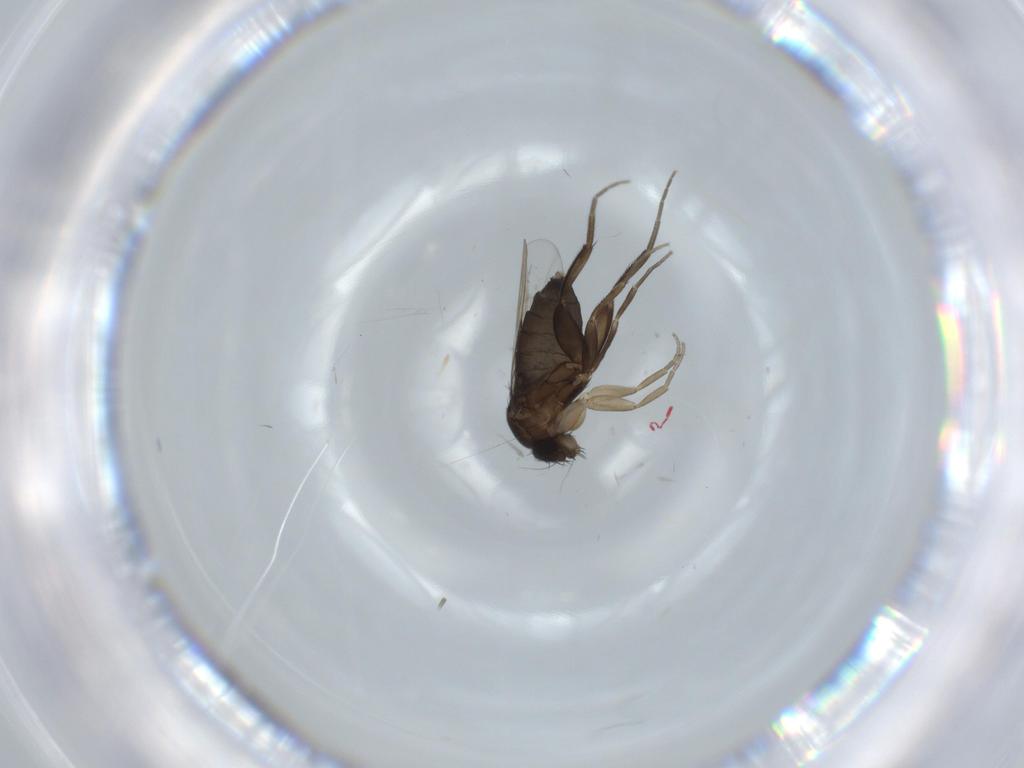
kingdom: Animalia
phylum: Arthropoda
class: Insecta
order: Diptera
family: Phoridae
